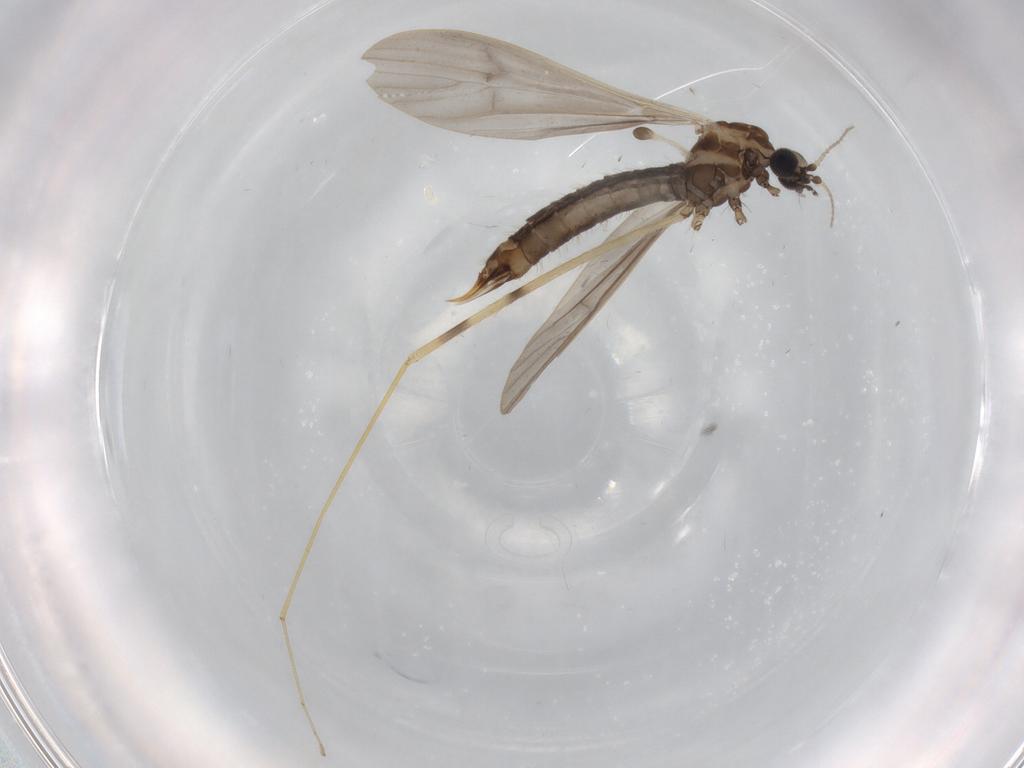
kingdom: Animalia
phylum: Arthropoda
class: Insecta
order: Diptera
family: Limoniidae
